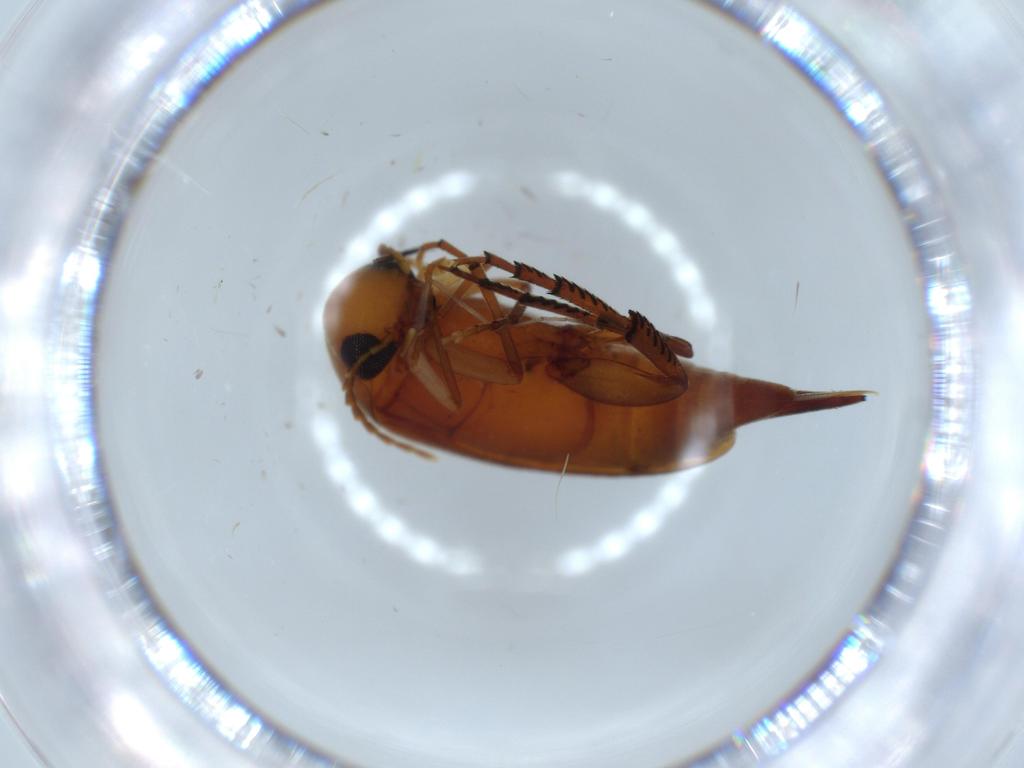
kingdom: Animalia
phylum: Arthropoda
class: Insecta
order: Coleoptera
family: Mordellidae
